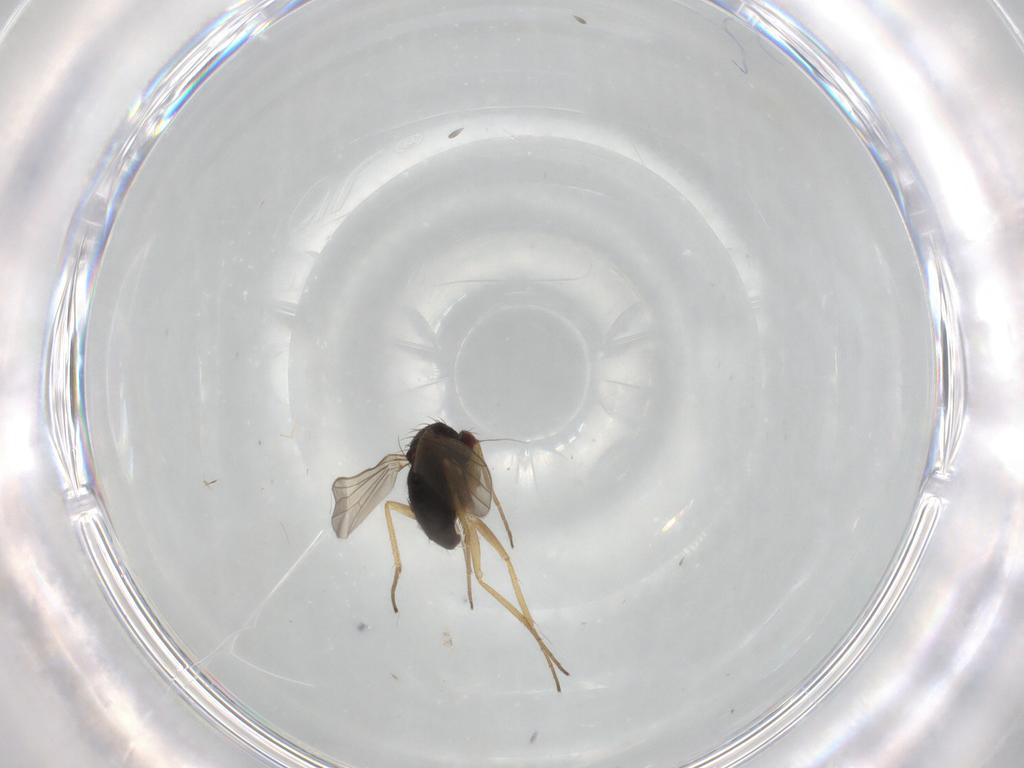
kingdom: Animalia
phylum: Arthropoda
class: Insecta
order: Diptera
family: Dolichopodidae
